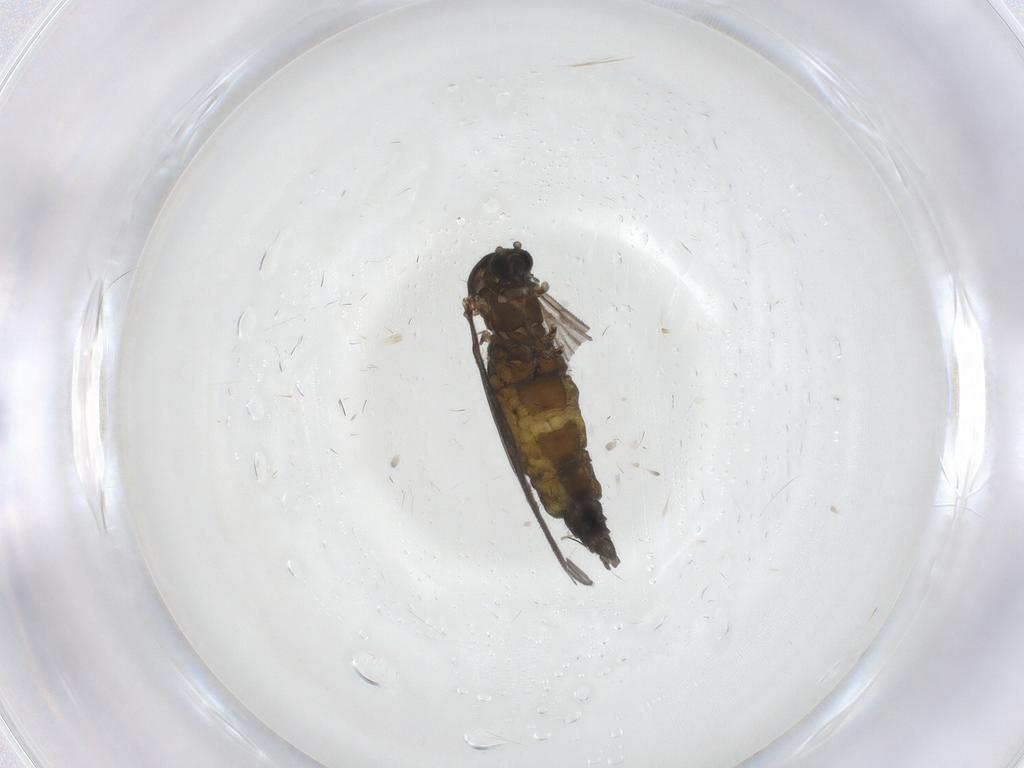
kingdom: Animalia
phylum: Arthropoda
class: Insecta
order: Diptera
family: Sciaridae
